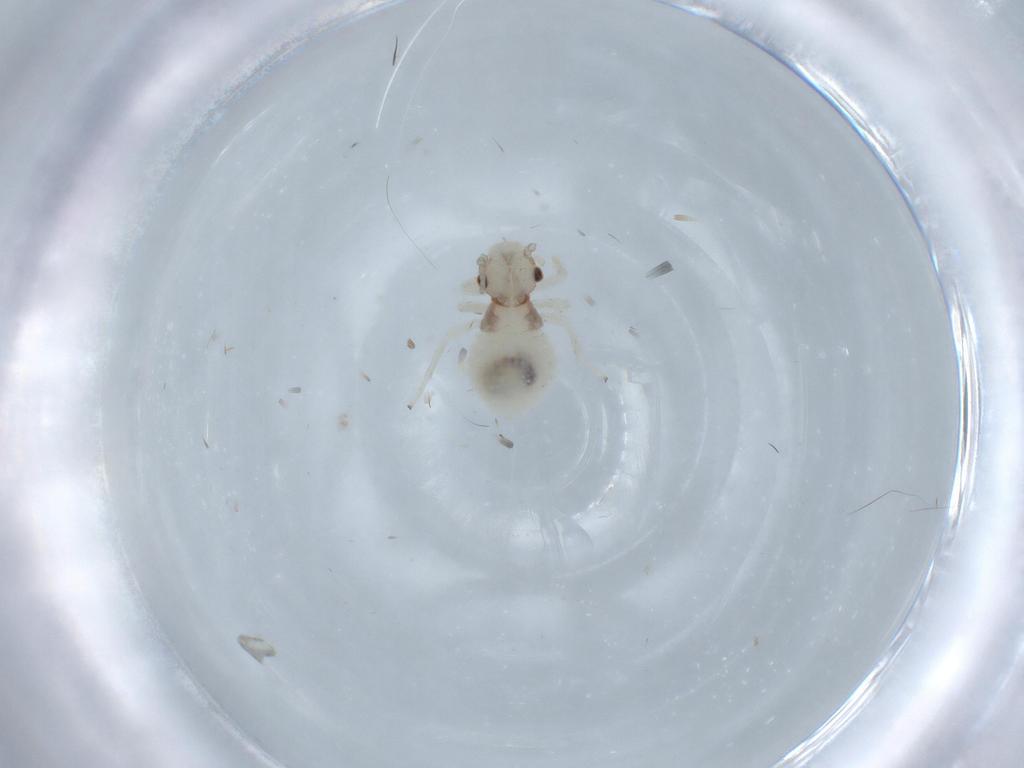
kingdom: Animalia
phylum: Arthropoda
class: Insecta
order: Psocodea
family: Amphipsocidae
